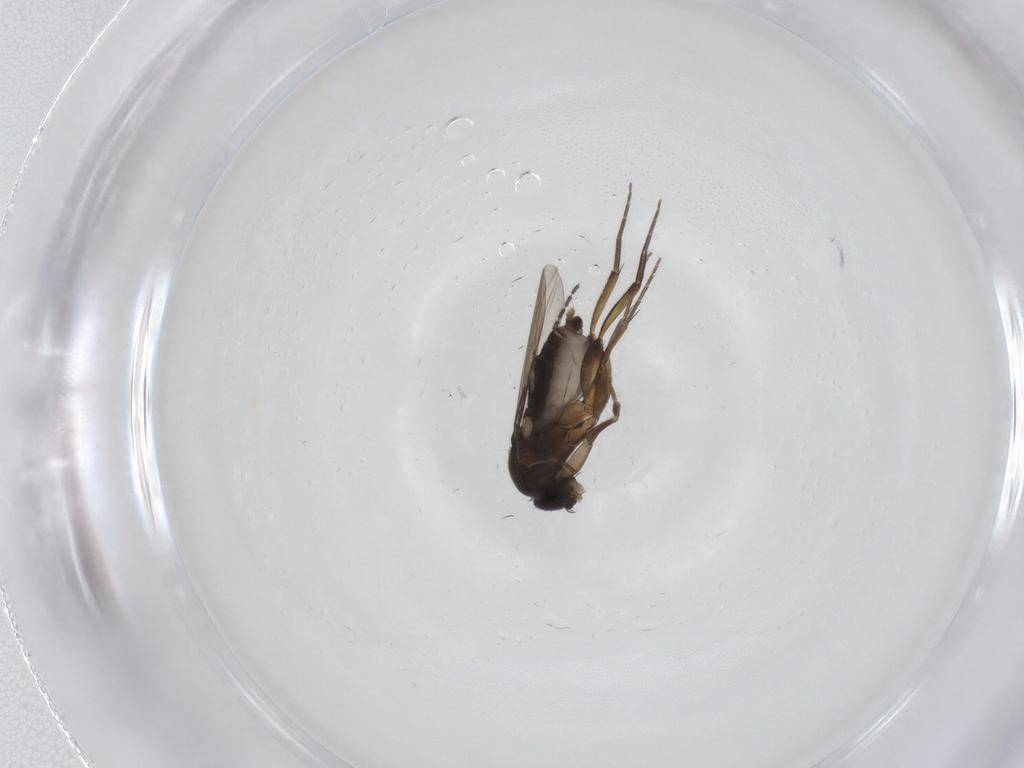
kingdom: Animalia
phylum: Arthropoda
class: Insecta
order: Diptera
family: Phoridae
